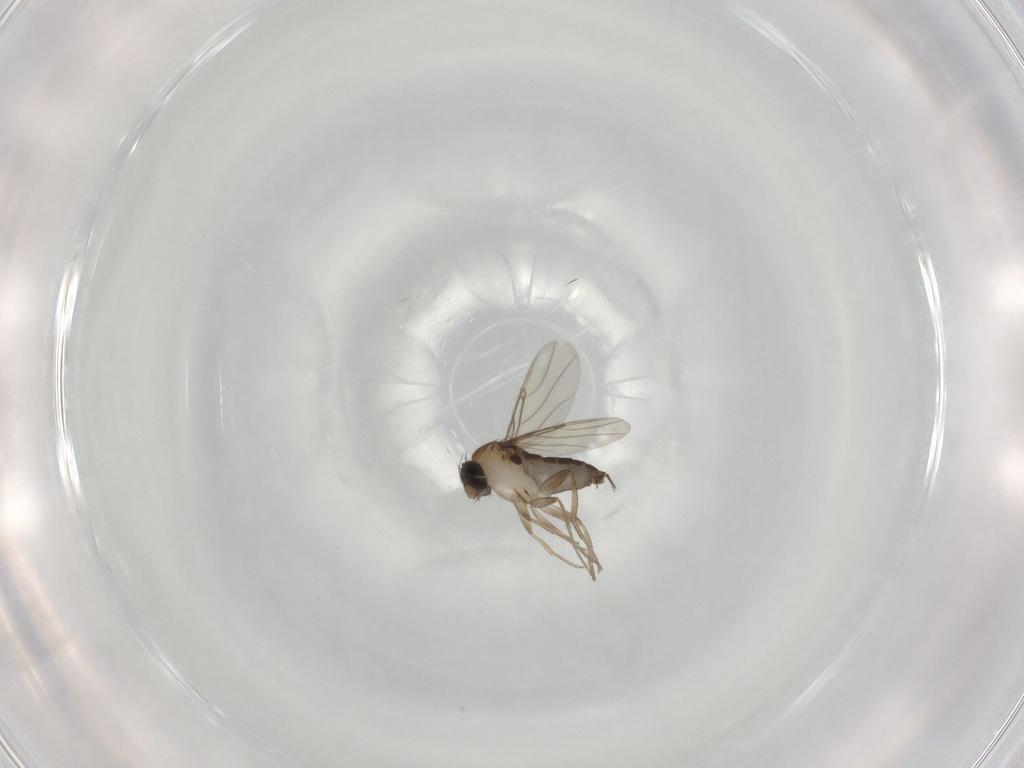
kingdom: Animalia
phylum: Arthropoda
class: Insecta
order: Diptera
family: Phoridae
